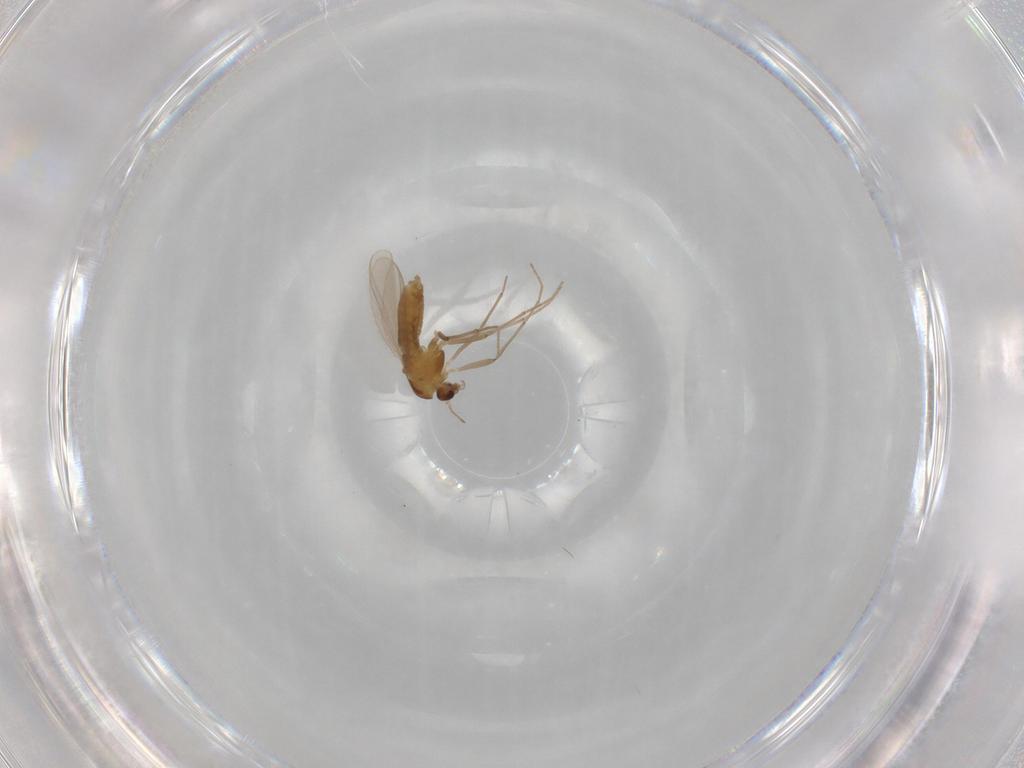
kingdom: Animalia
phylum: Arthropoda
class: Insecta
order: Diptera
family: Chironomidae
